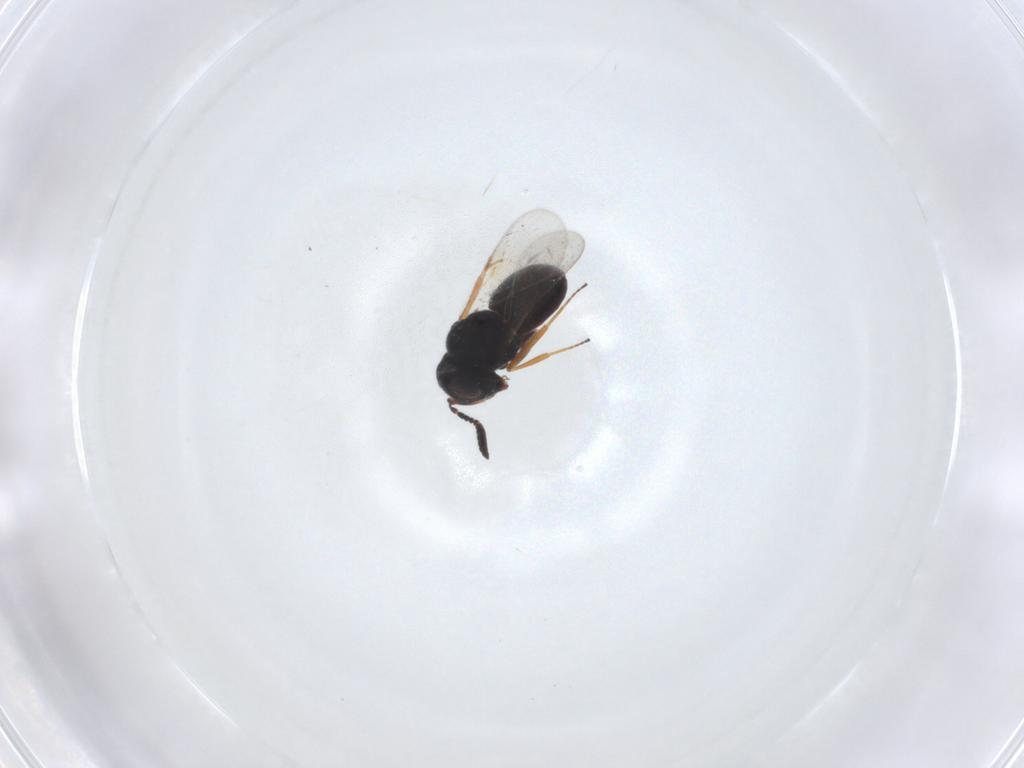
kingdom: Animalia
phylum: Arthropoda
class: Insecta
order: Hymenoptera
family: Scelionidae
